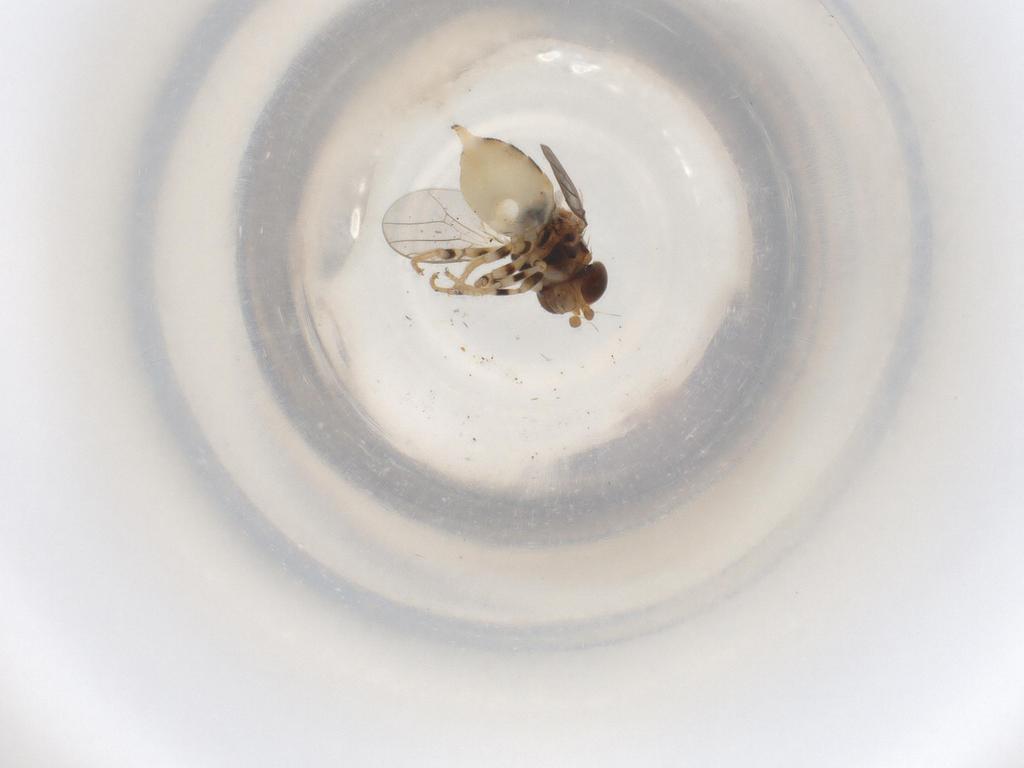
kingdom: Animalia
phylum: Arthropoda
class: Insecta
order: Diptera
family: Chloropidae
